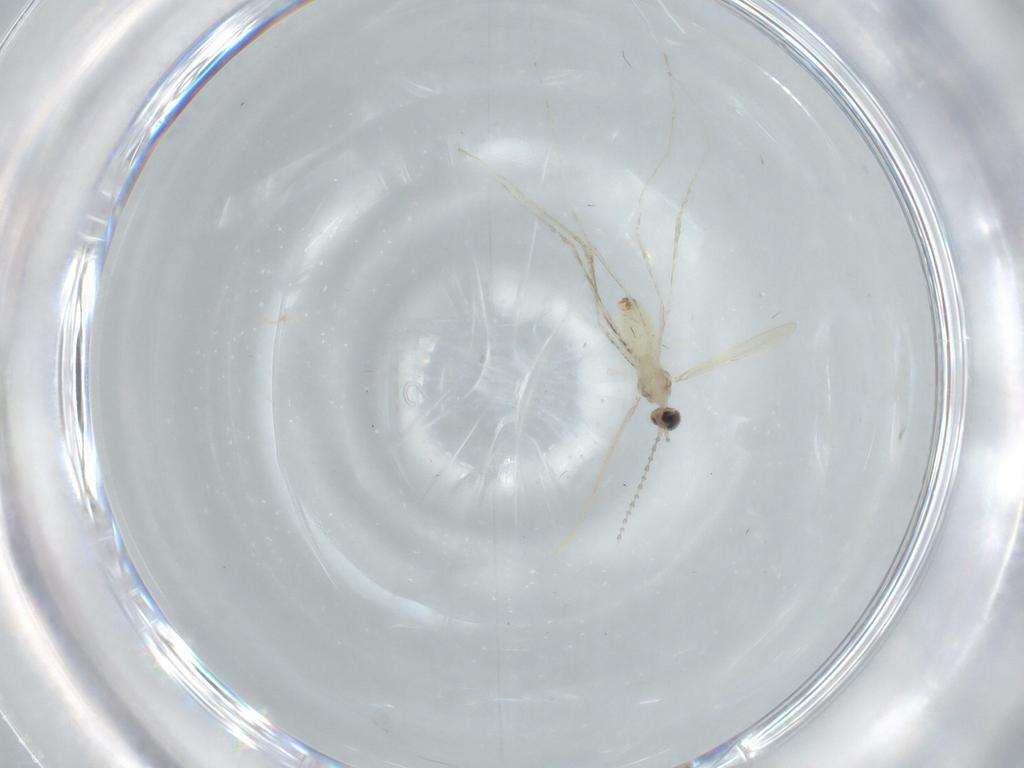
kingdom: Animalia
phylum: Arthropoda
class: Insecta
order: Diptera
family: Cecidomyiidae
